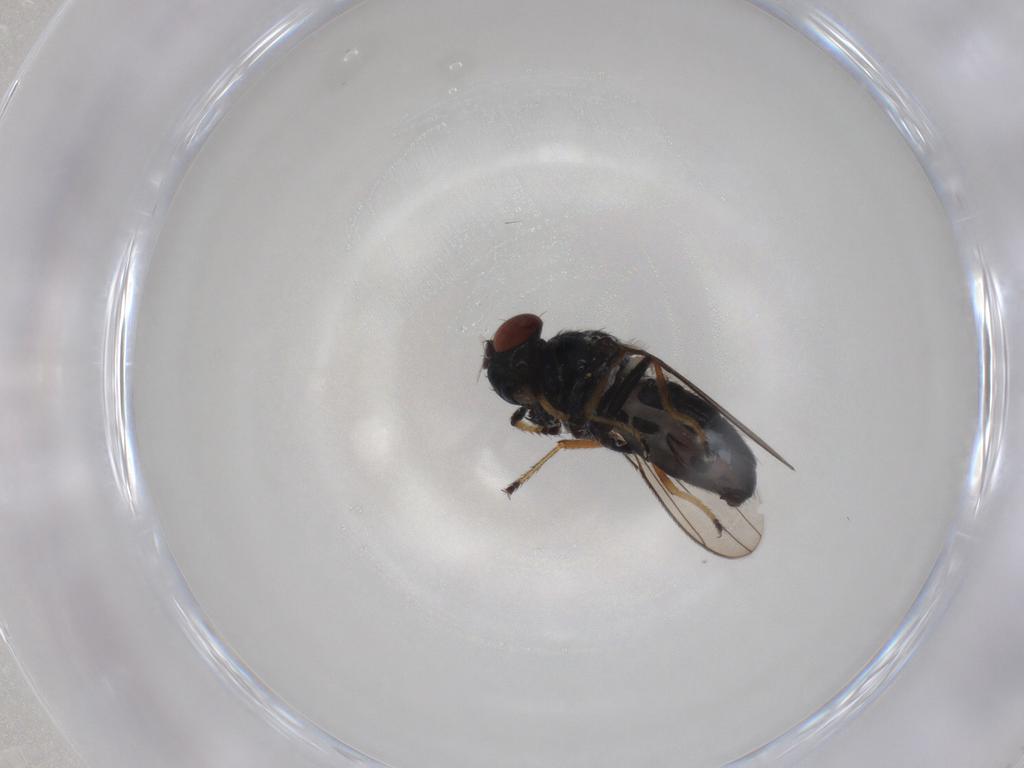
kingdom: Animalia
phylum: Arthropoda
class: Insecta
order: Diptera
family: Ephydridae
